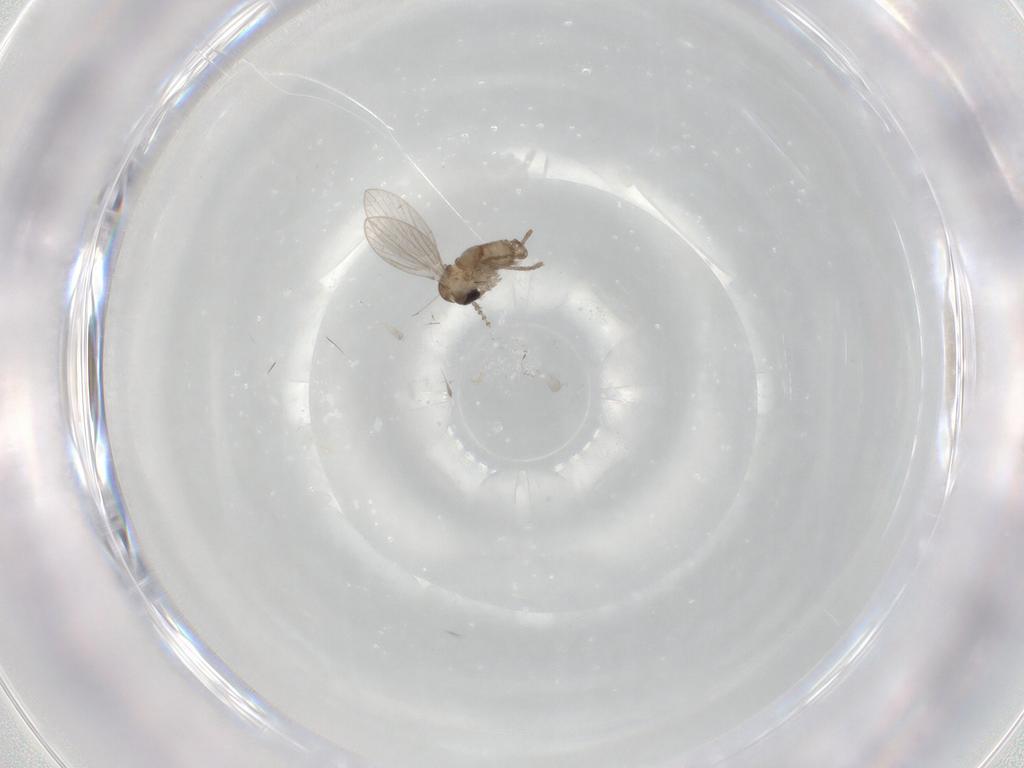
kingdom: Animalia
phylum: Arthropoda
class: Insecta
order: Diptera
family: Psychodidae
